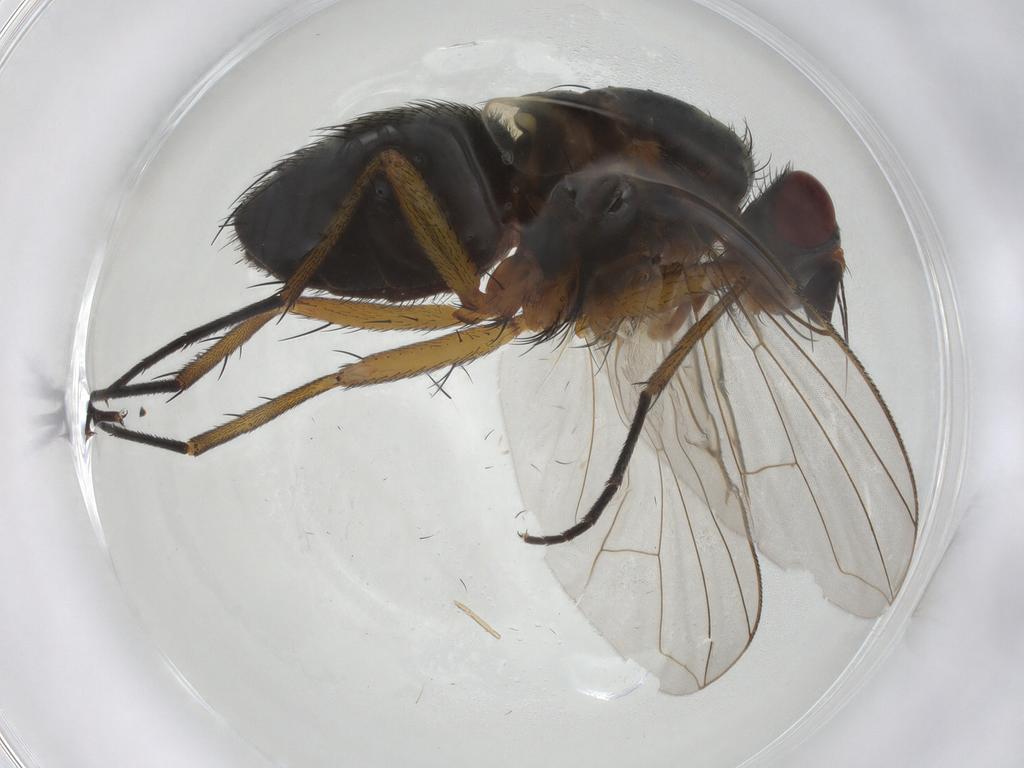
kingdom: Animalia
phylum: Arthropoda
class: Insecta
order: Diptera
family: Anthomyiidae
